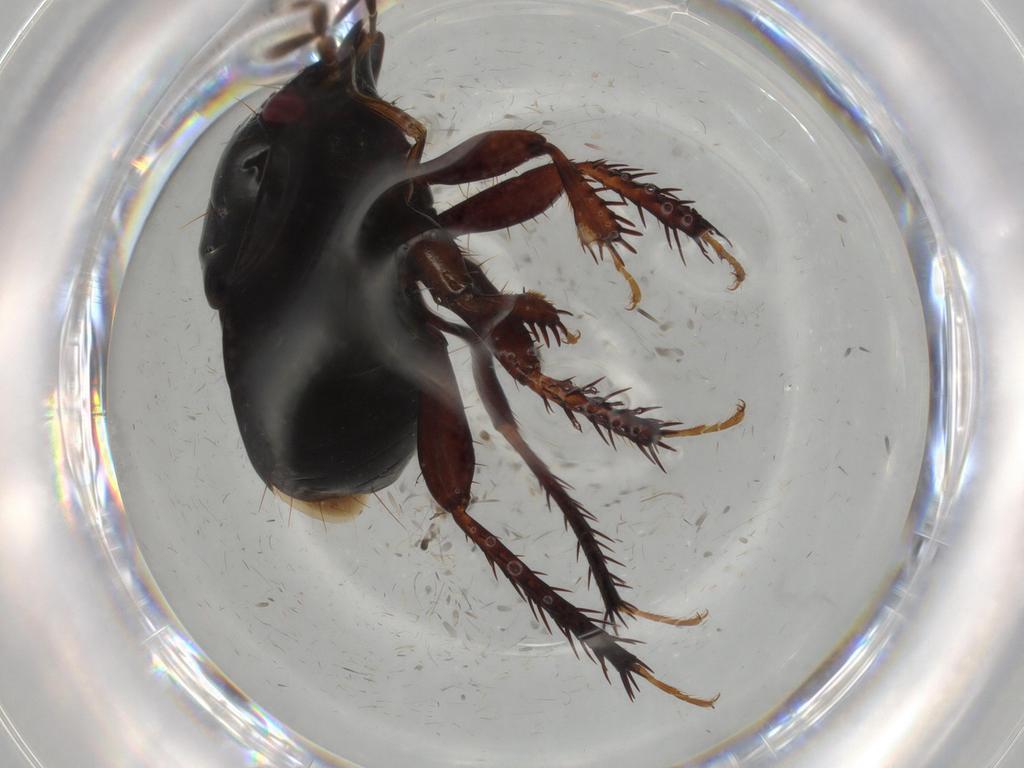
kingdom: Animalia
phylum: Arthropoda
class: Insecta
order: Hemiptera
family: Cydnidae
